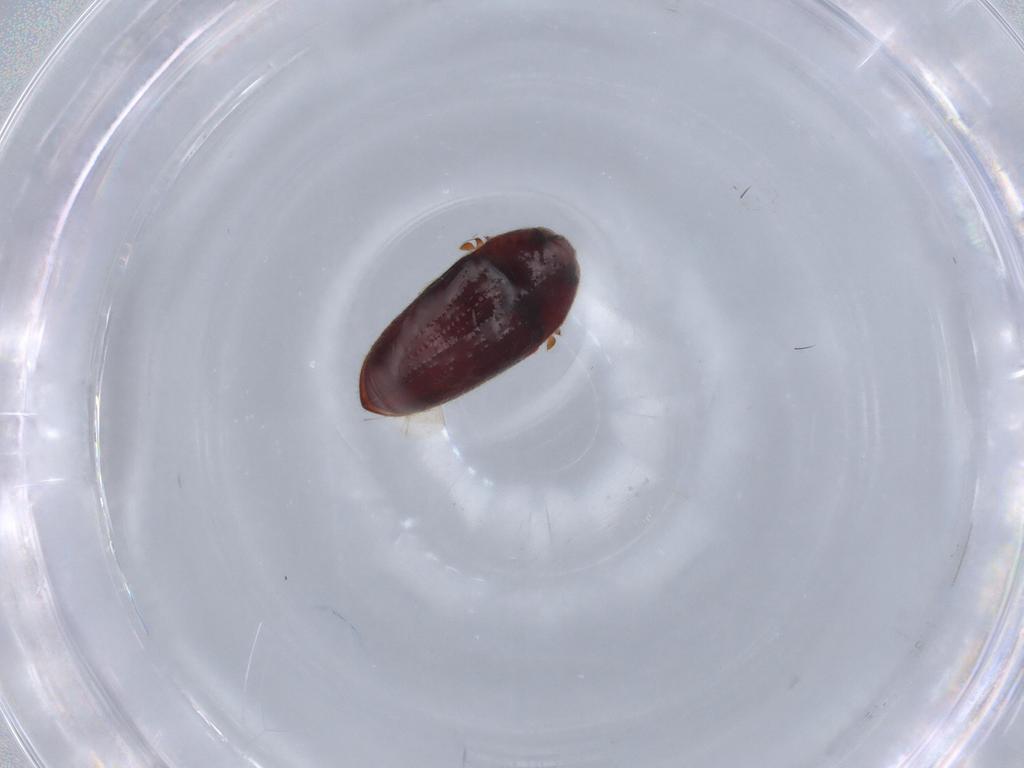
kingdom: Animalia
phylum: Arthropoda
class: Insecta
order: Coleoptera
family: Throscidae
